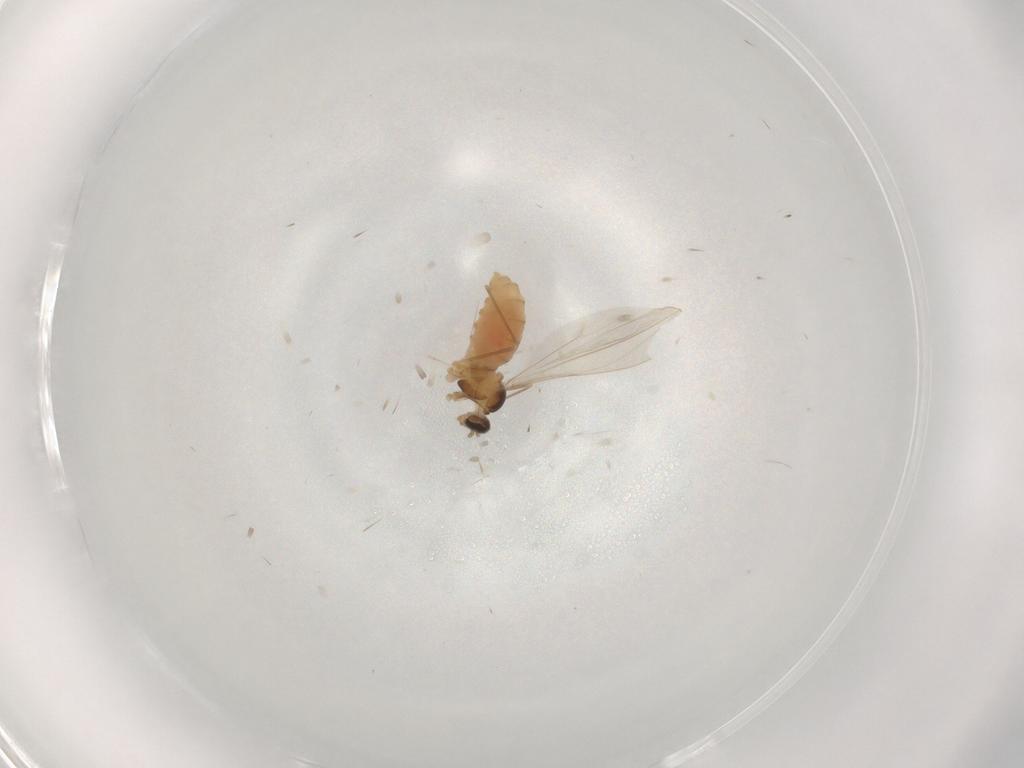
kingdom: Animalia
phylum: Arthropoda
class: Insecta
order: Diptera
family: Cecidomyiidae
